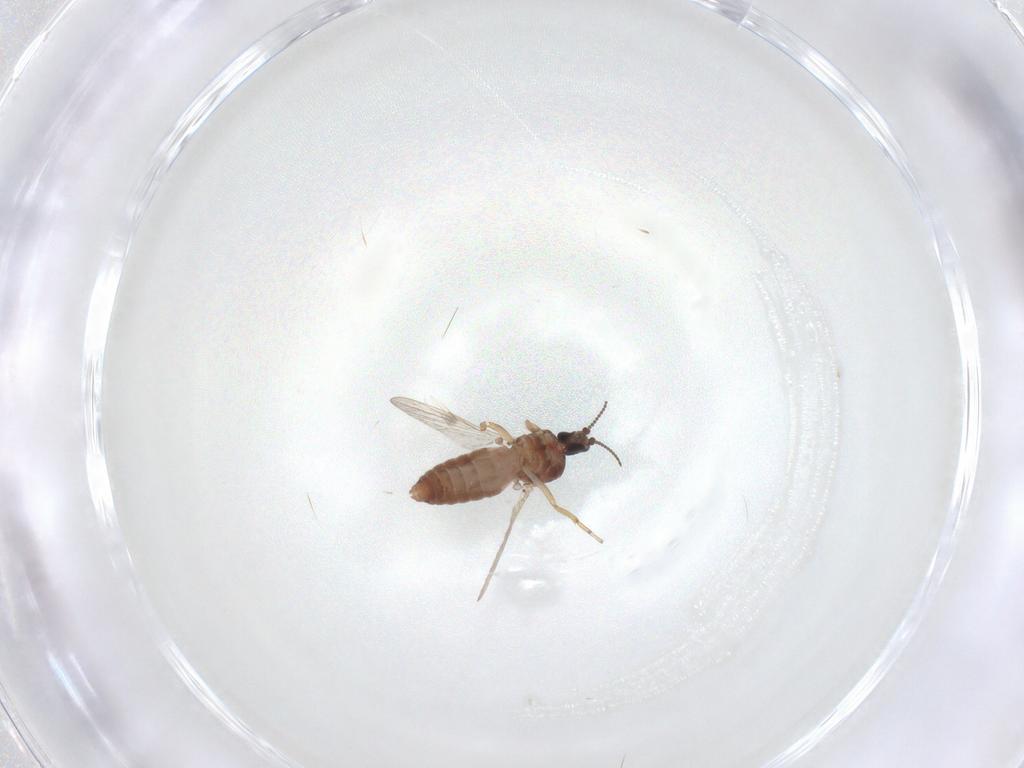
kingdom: Animalia
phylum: Arthropoda
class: Insecta
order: Diptera
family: Ceratopogonidae
